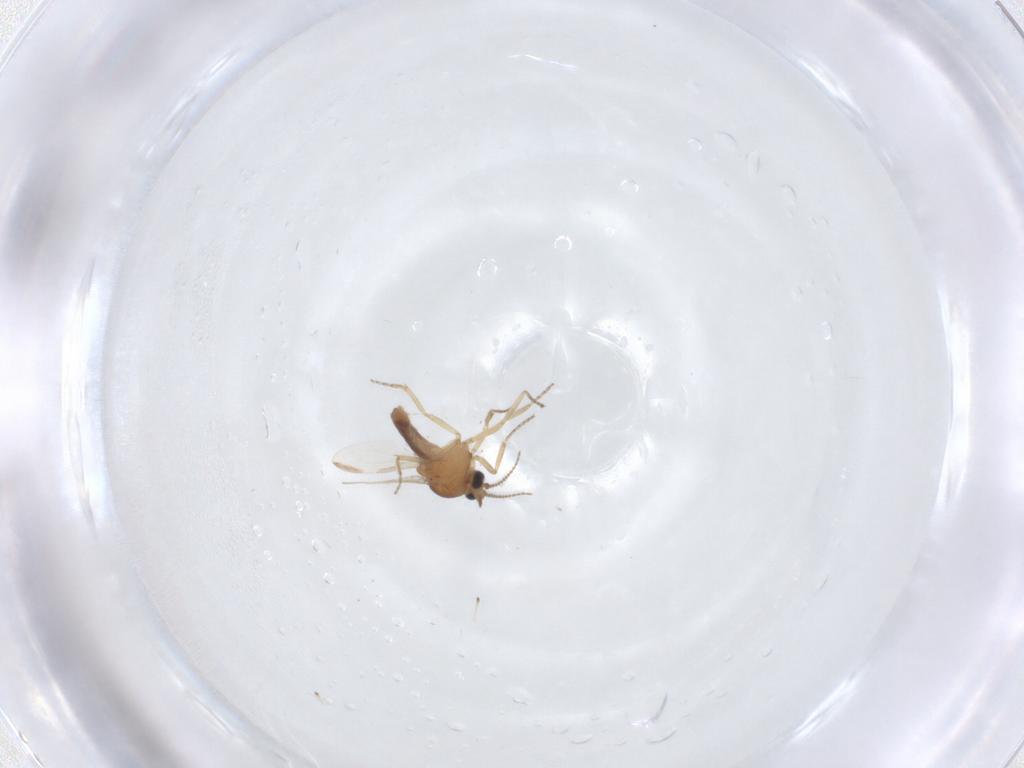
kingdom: Animalia
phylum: Arthropoda
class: Insecta
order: Diptera
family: Ceratopogonidae
